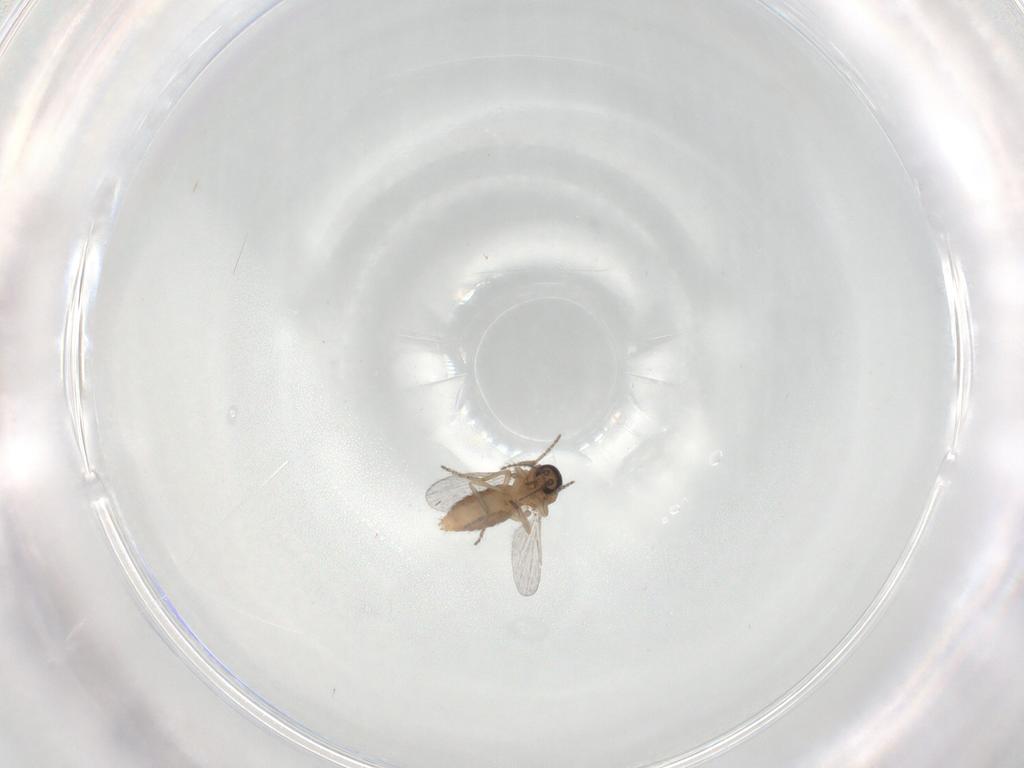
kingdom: Animalia
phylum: Arthropoda
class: Insecta
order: Diptera
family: Ceratopogonidae
